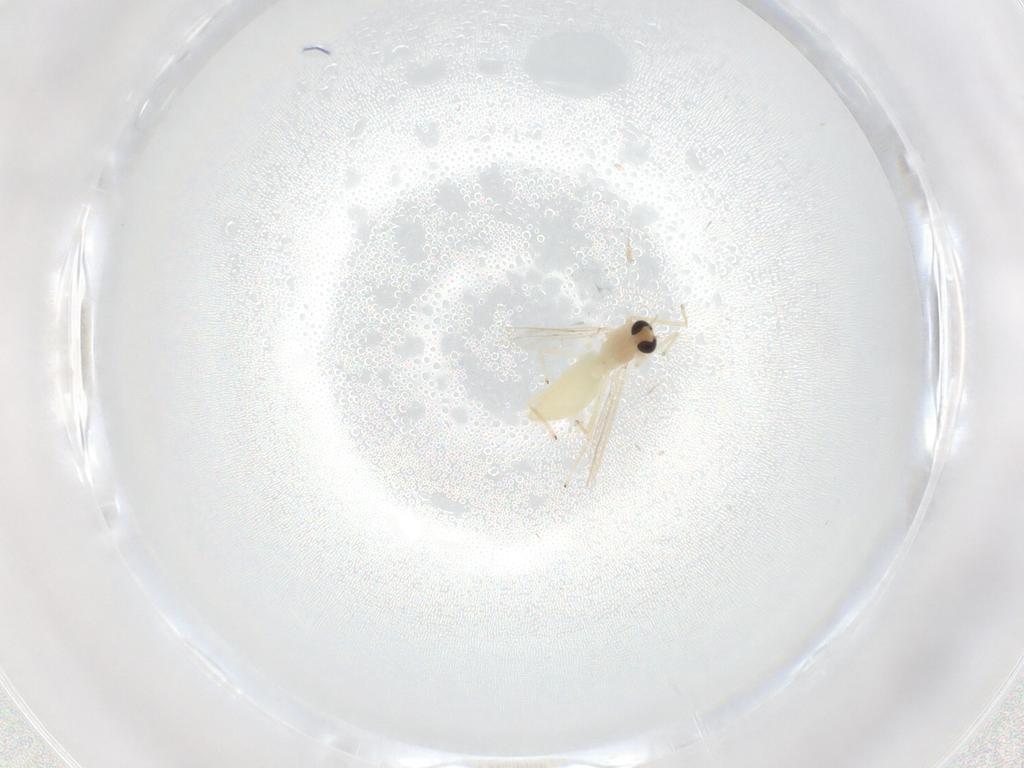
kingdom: Animalia
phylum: Arthropoda
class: Insecta
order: Diptera
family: Chironomidae
